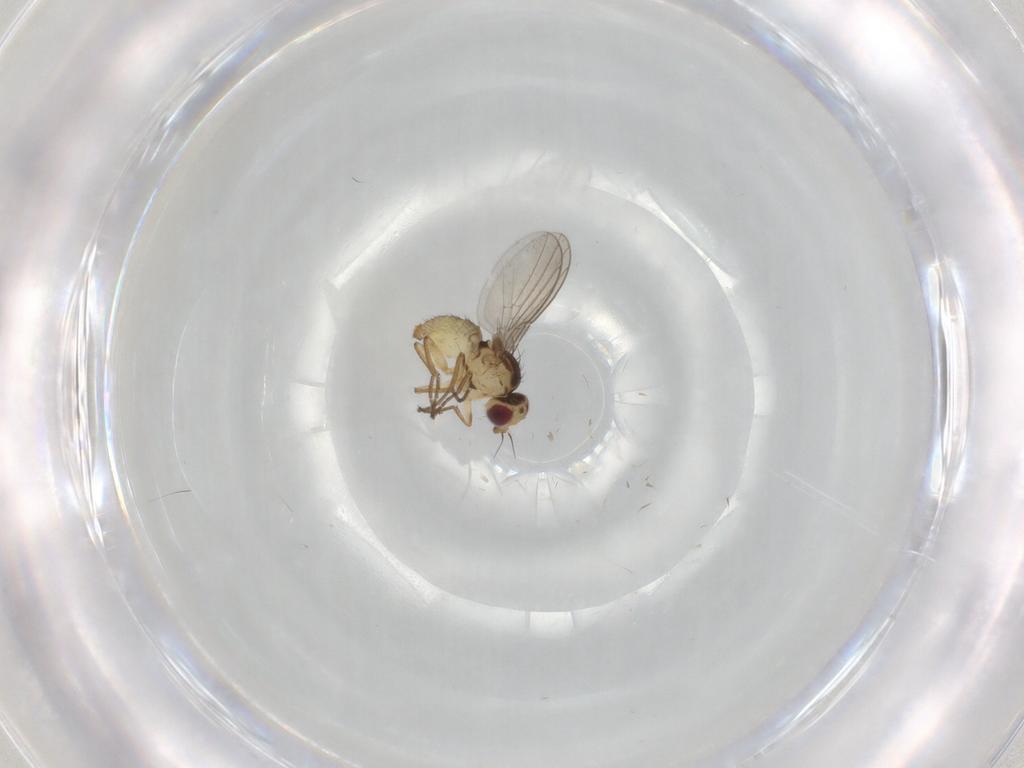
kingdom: Animalia
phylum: Arthropoda
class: Insecta
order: Diptera
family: Agromyzidae
